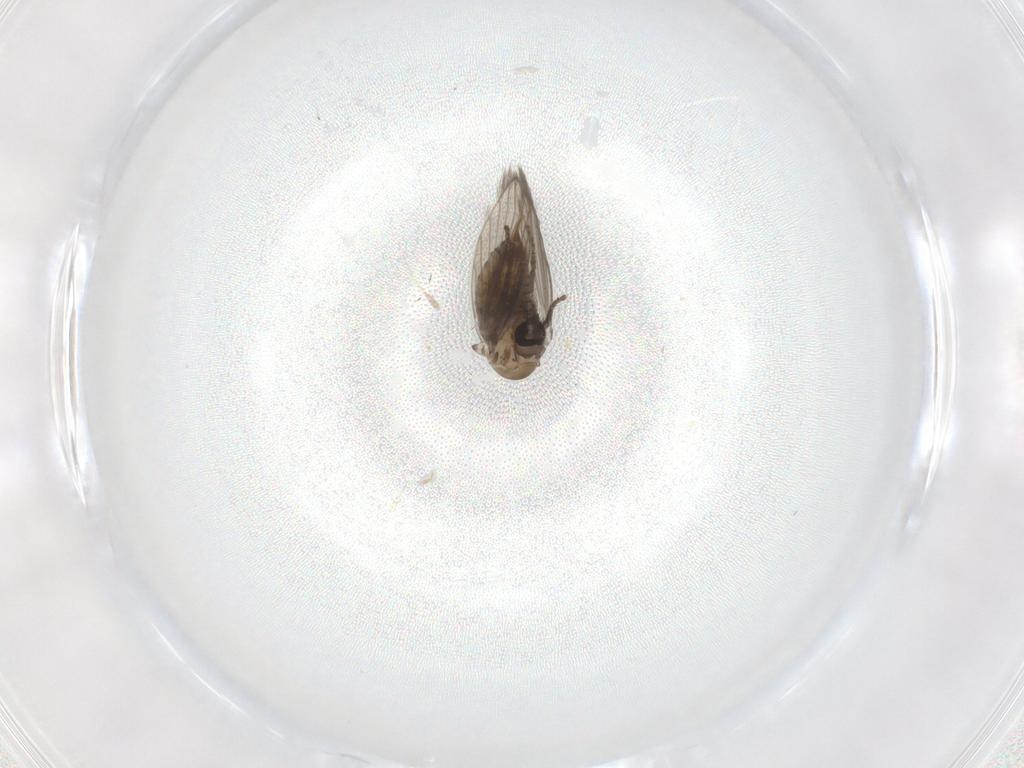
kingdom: Animalia
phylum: Arthropoda
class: Insecta
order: Diptera
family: Psychodidae
